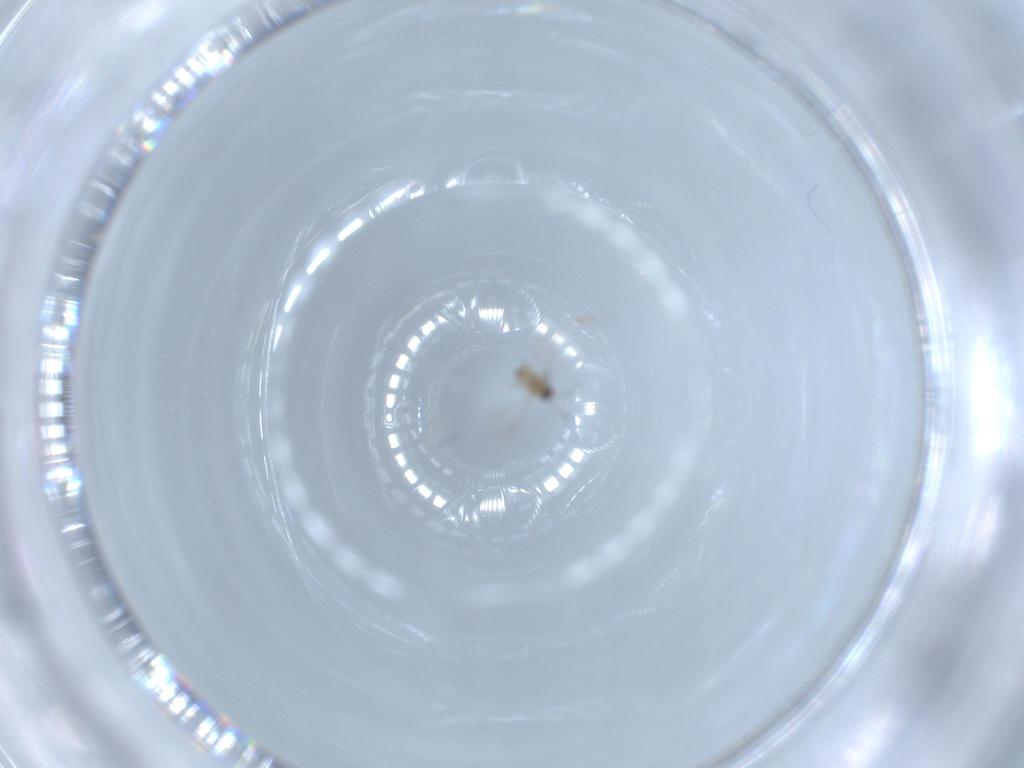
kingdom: Animalia
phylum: Arthropoda
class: Insecta
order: Hymenoptera
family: Mymaridae
